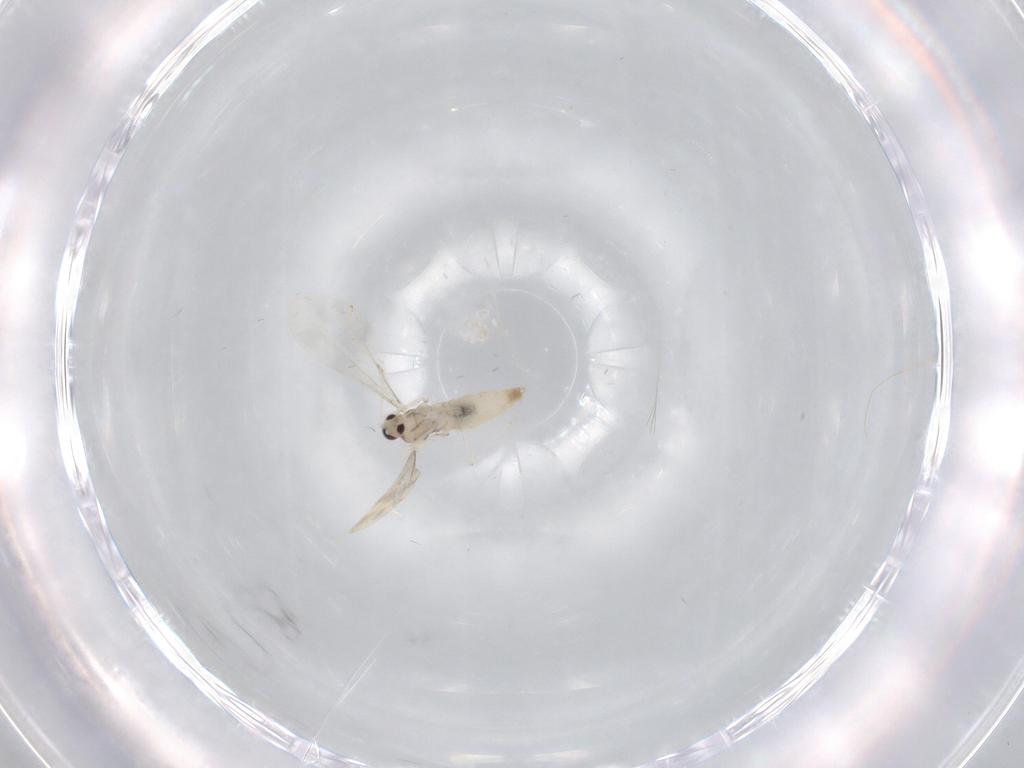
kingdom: Animalia
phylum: Arthropoda
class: Insecta
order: Diptera
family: Cecidomyiidae
